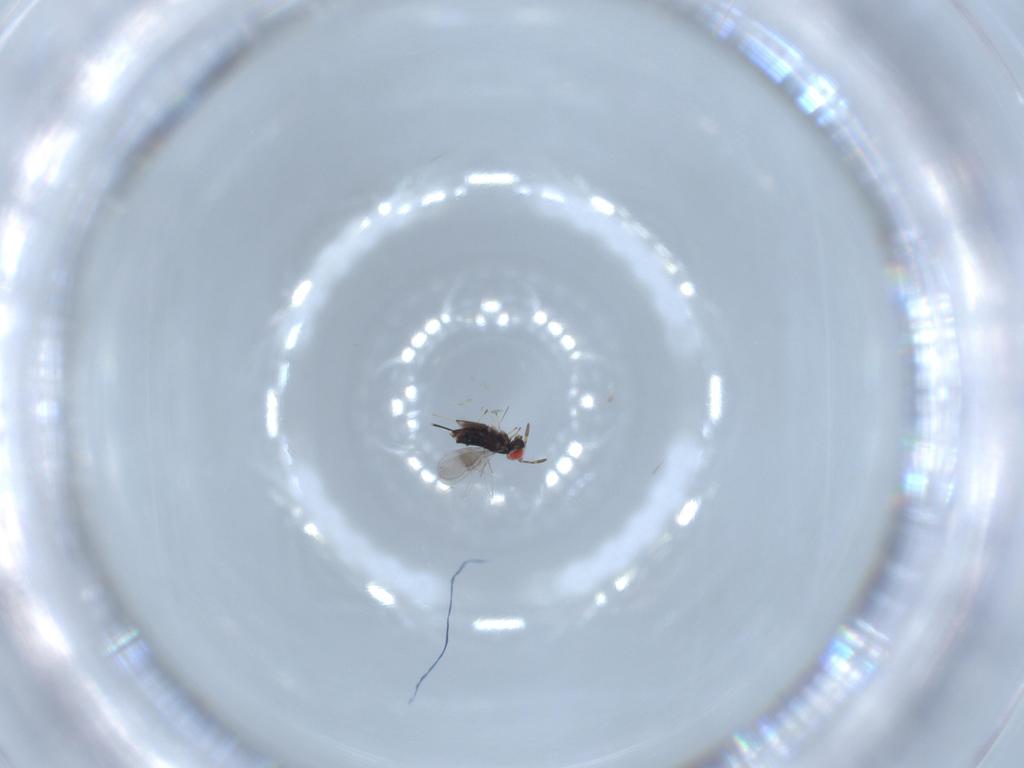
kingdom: Animalia
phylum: Arthropoda
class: Insecta
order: Hymenoptera
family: Azotidae
